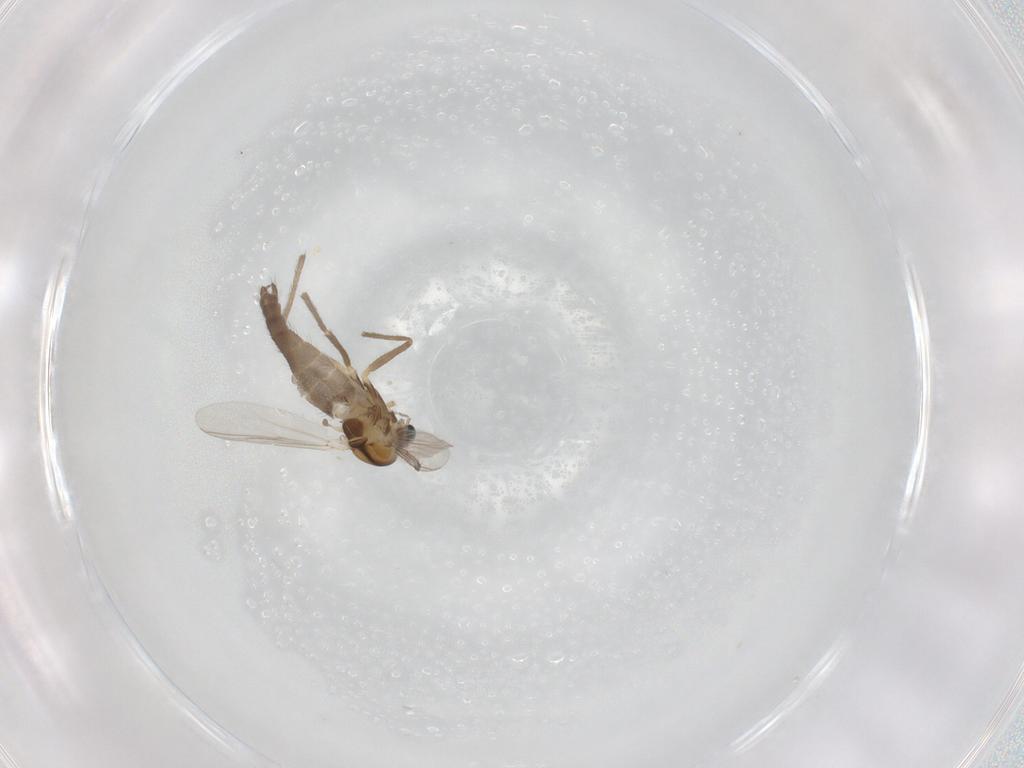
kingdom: Animalia
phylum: Arthropoda
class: Insecta
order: Diptera
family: Chironomidae
